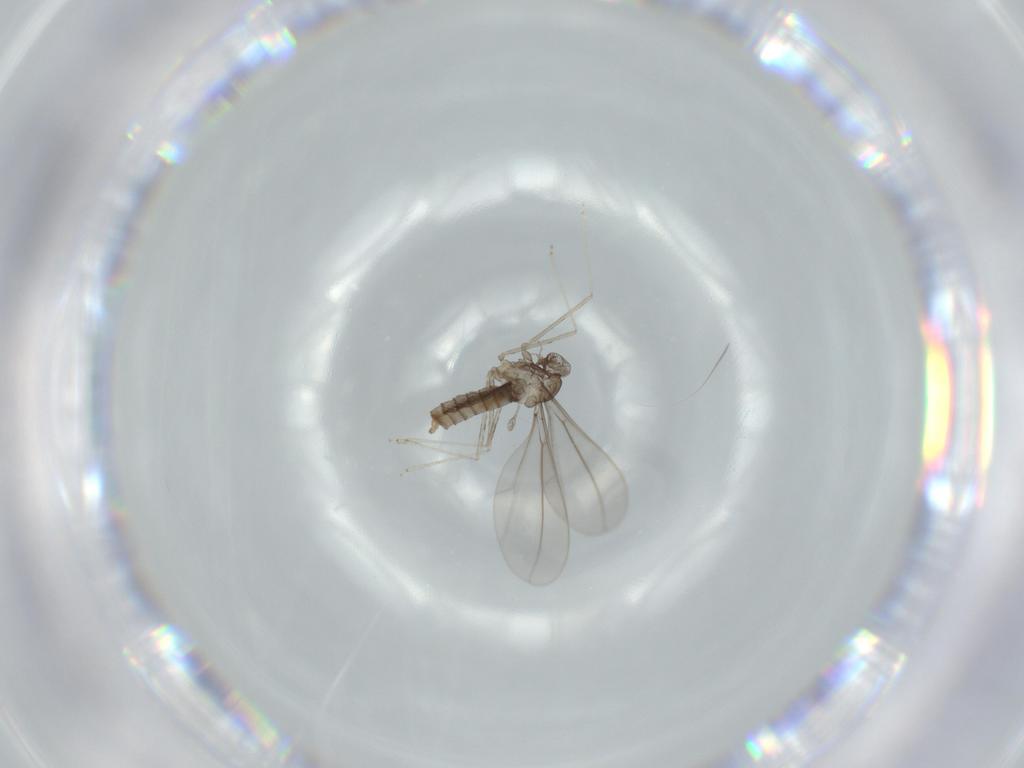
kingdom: Animalia
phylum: Arthropoda
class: Insecta
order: Diptera
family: Cecidomyiidae
